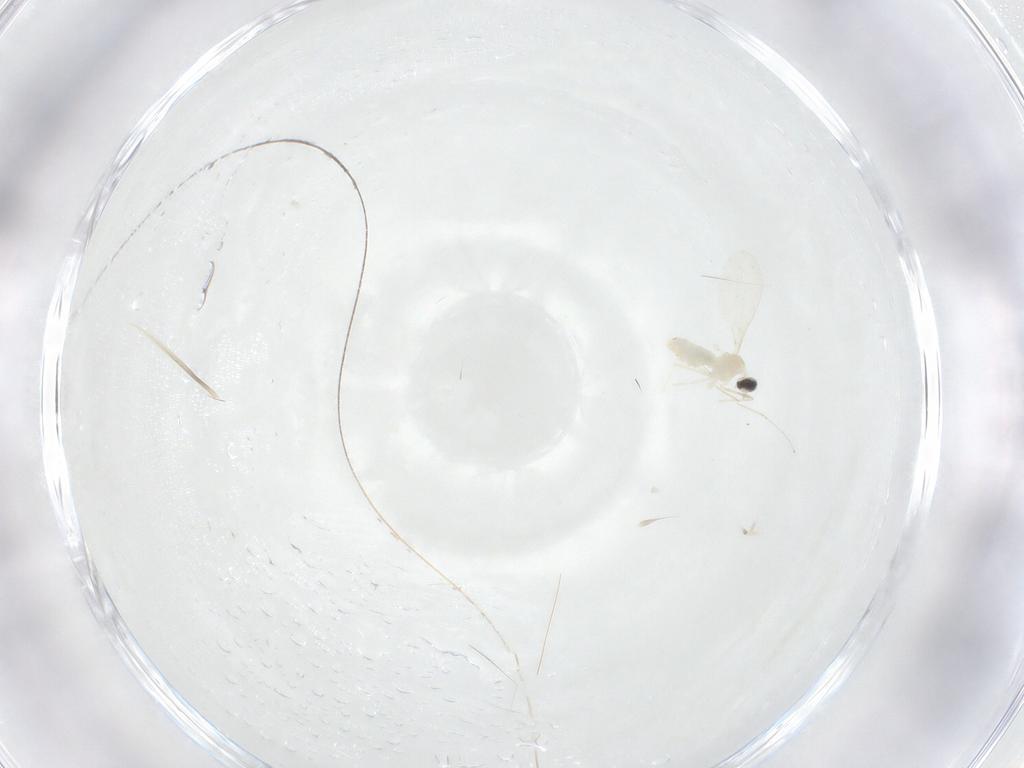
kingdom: Animalia
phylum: Arthropoda
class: Insecta
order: Diptera
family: Cecidomyiidae
